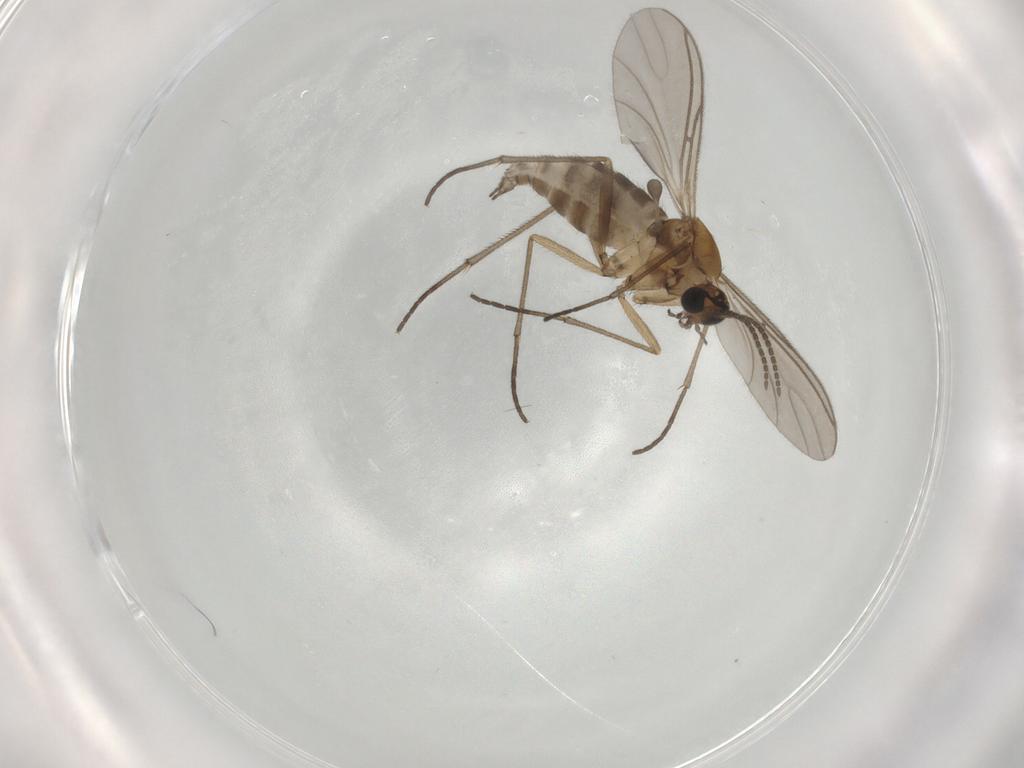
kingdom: Animalia
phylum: Arthropoda
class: Insecta
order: Diptera
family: Sciaridae
